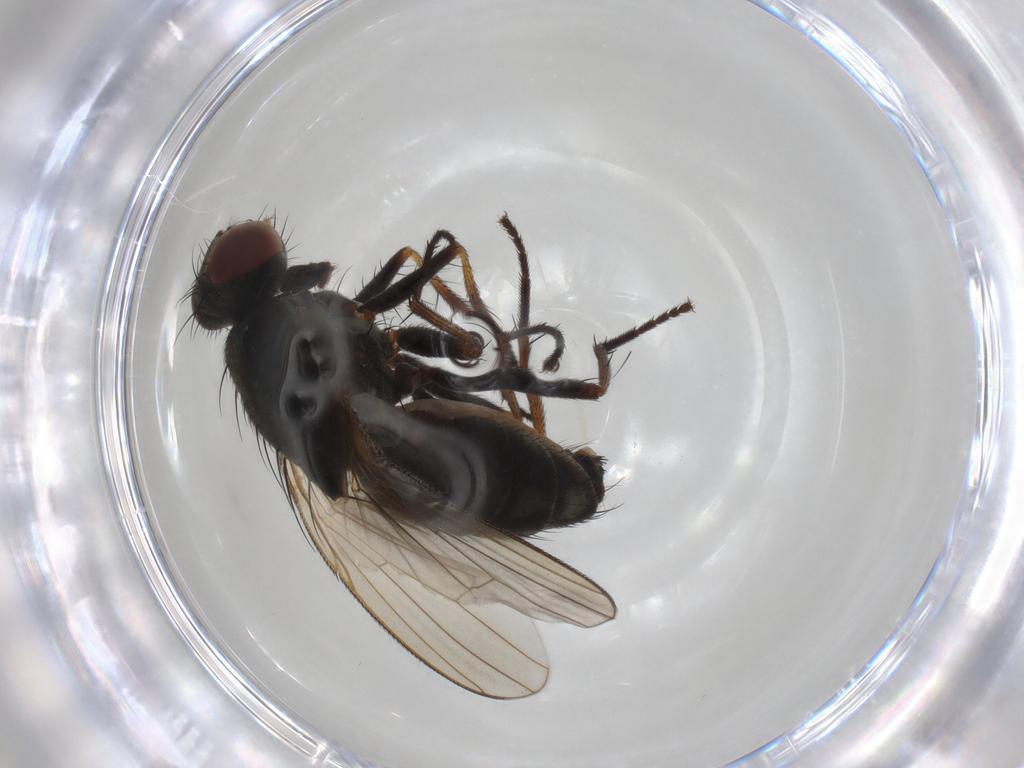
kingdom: Animalia
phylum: Arthropoda
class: Insecta
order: Diptera
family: Muscidae
